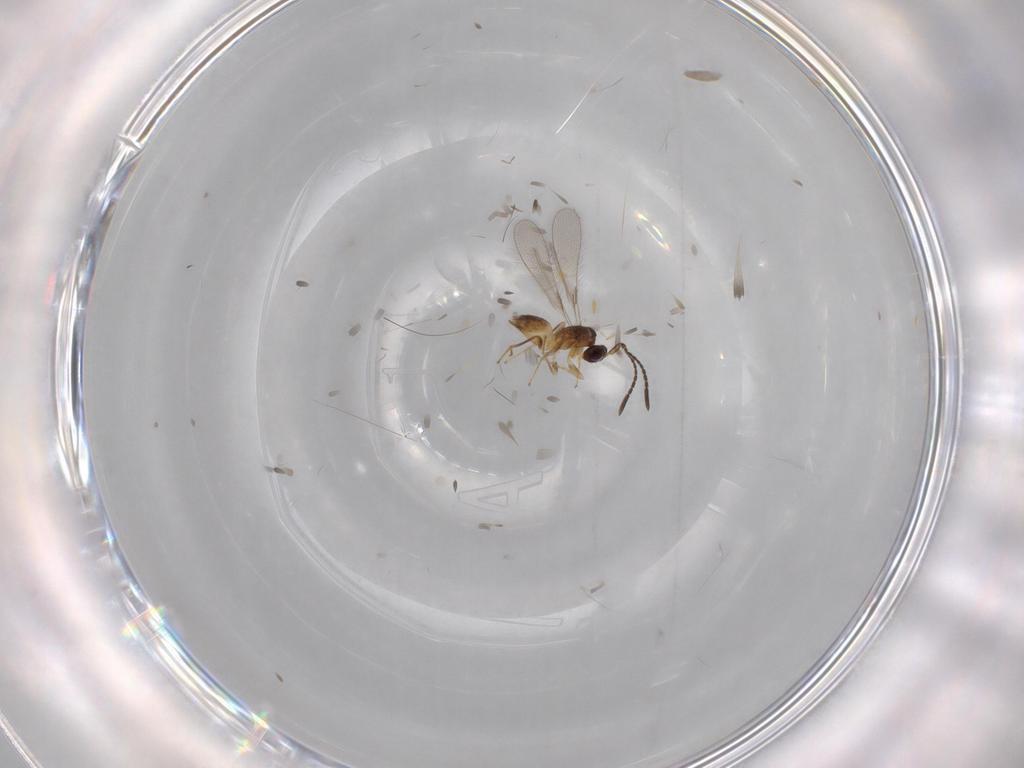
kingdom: Animalia
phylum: Arthropoda
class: Insecta
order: Hymenoptera
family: Mymaridae
